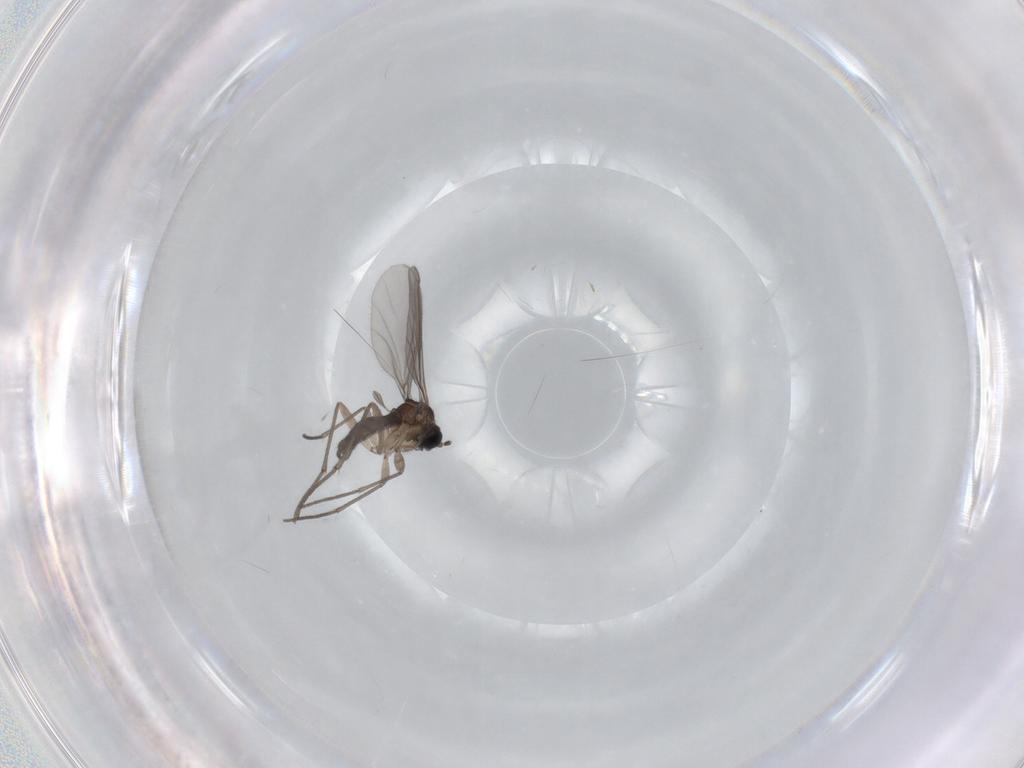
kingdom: Animalia
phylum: Arthropoda
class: Insecta
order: Diptera
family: Sciaridae
